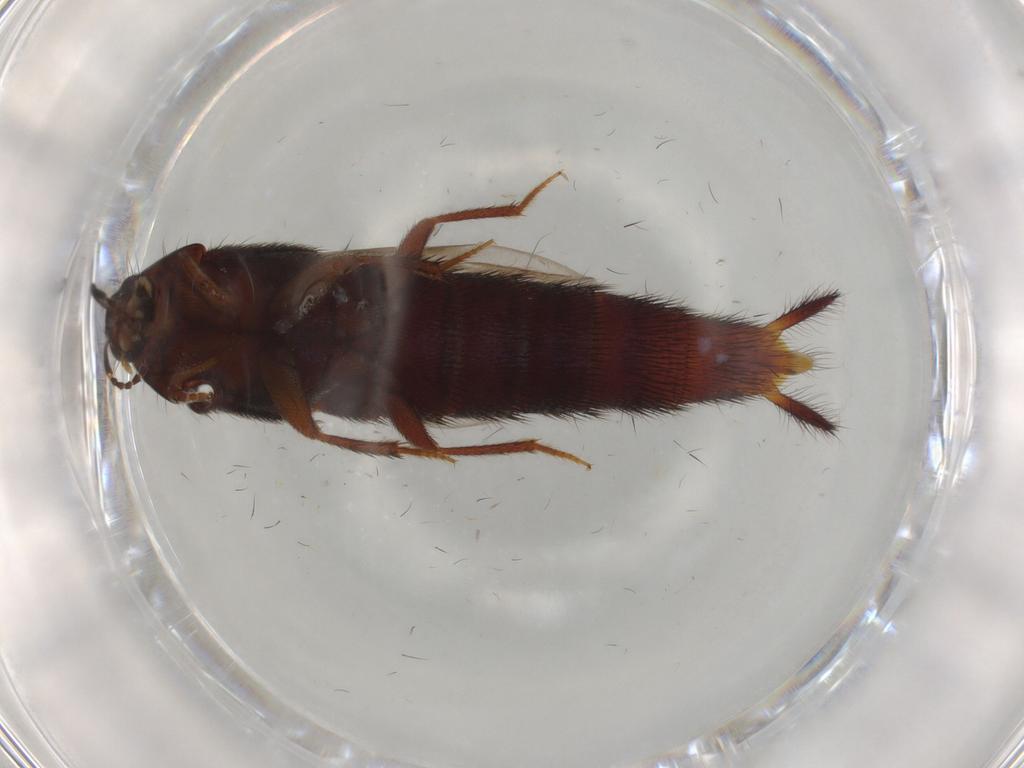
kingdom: Animalia
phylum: Arthropoda
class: Insecta
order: Coleoptera
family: Staphylinidae
